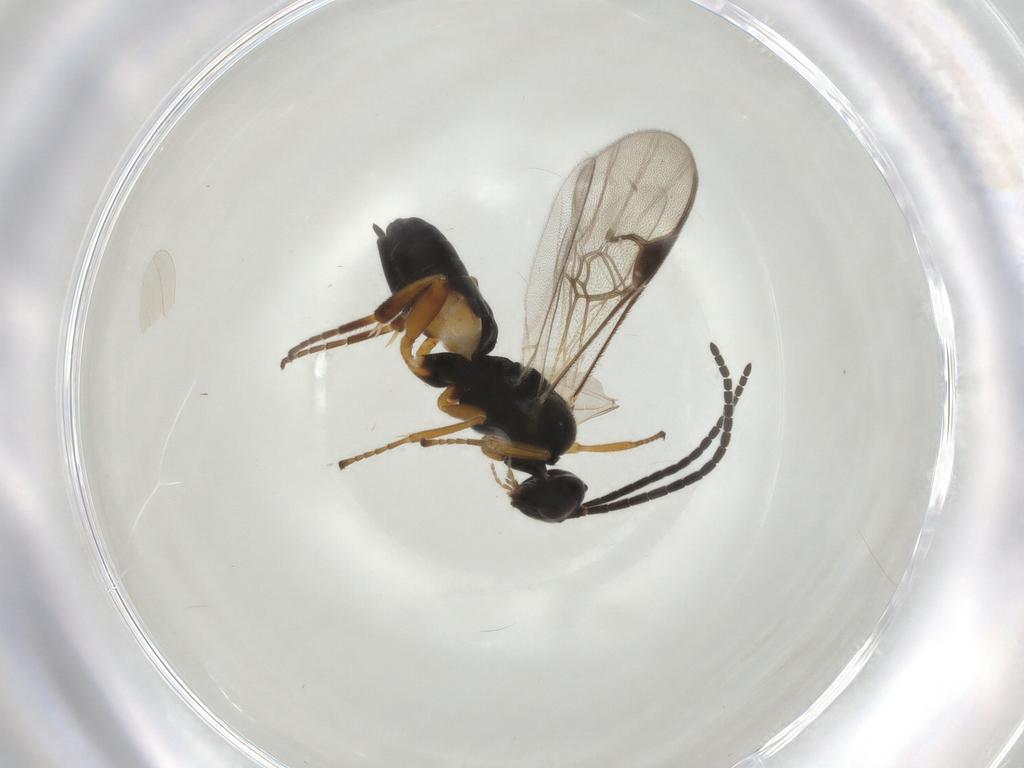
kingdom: Animalia
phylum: Arthropoda
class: Insecta
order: Hymenoptera
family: Braconidae
